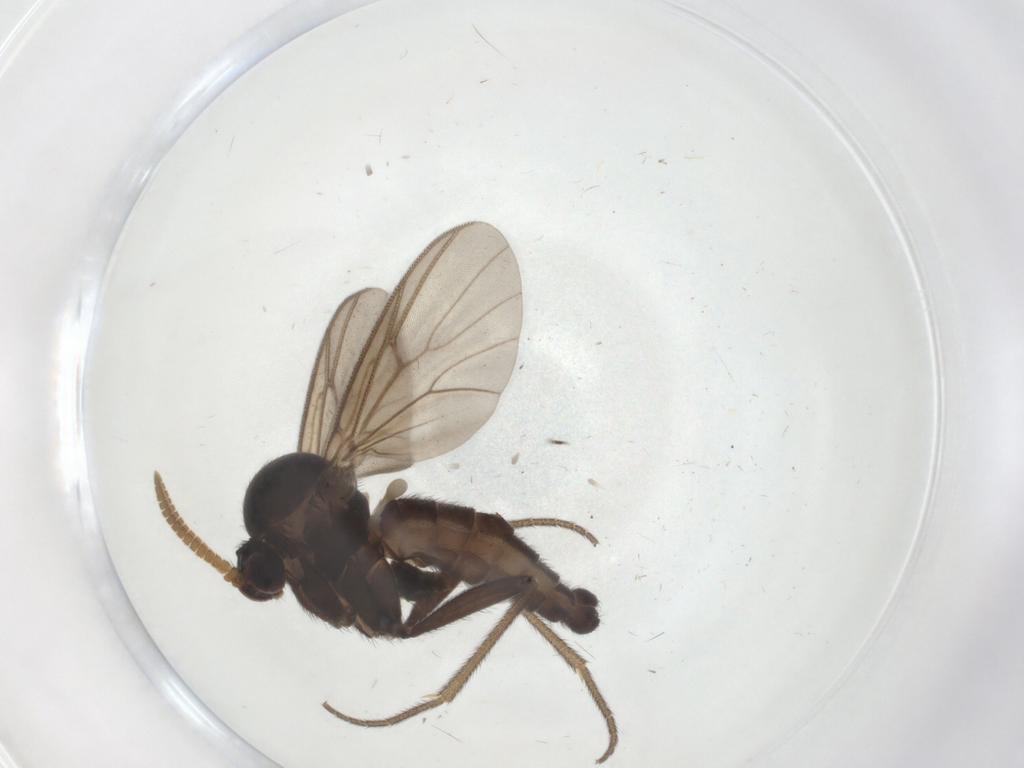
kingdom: Animalia
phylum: Arthropoda
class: Insecta
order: Diptera
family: Mycetophilidae
